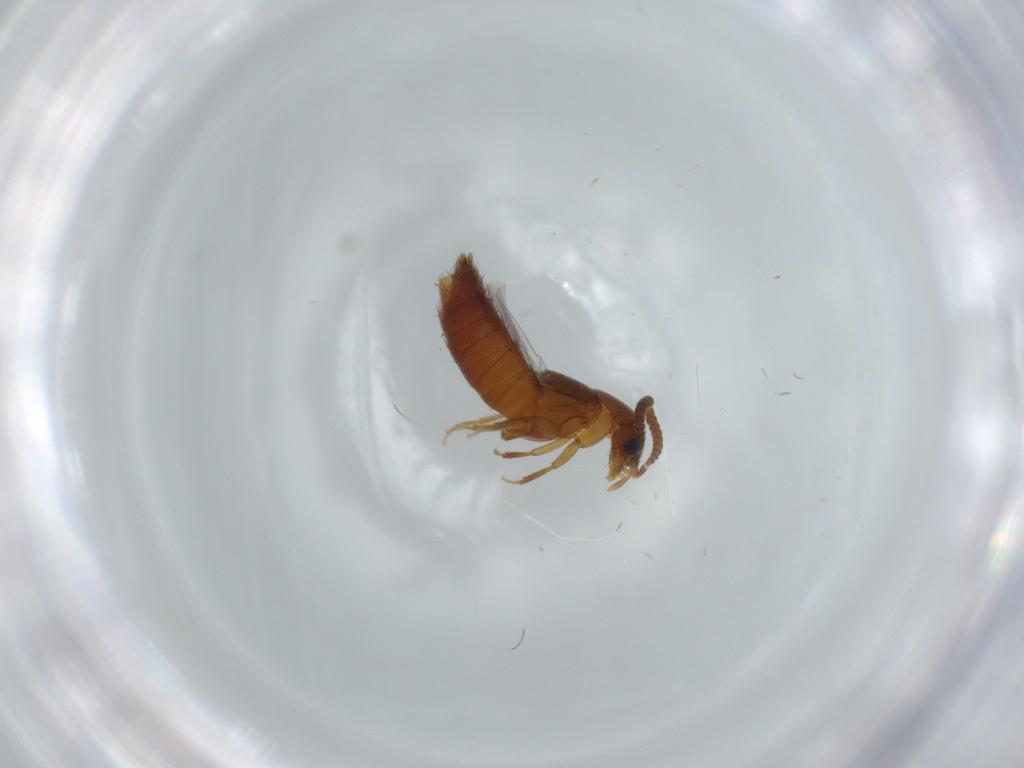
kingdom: Animalia
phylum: Arthropoda
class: Insecta
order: Coleoptera
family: Staphylinidae
